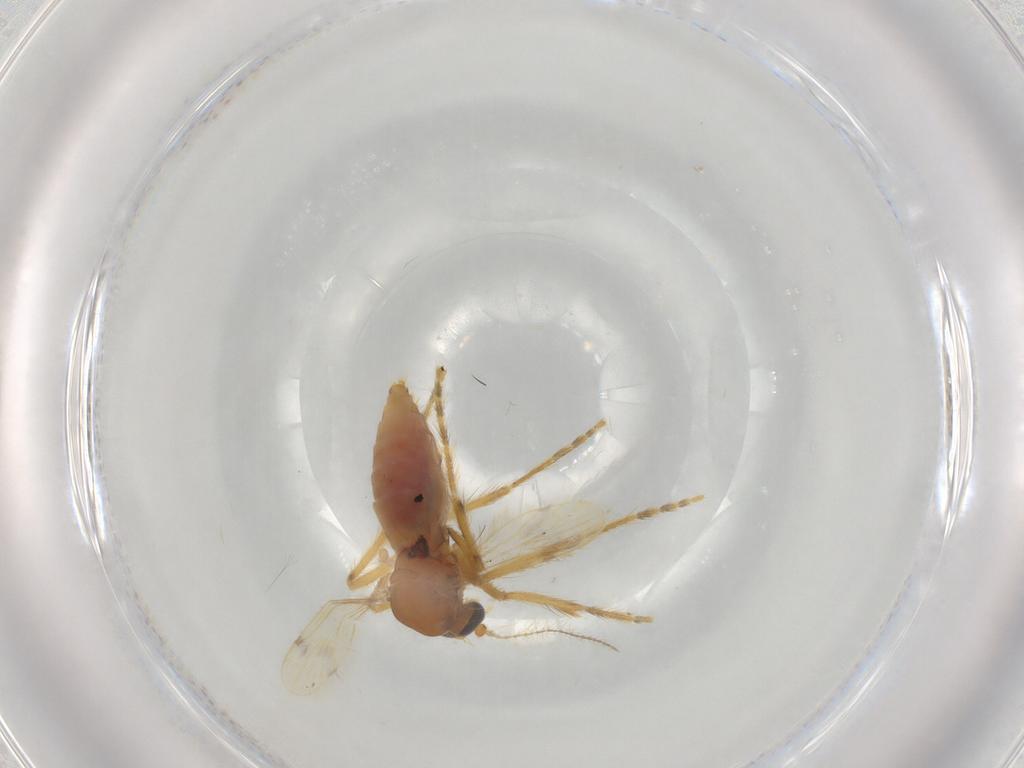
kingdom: Animalia
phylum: Arthropoda
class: Insecta
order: Diptera
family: Corethrellidae
